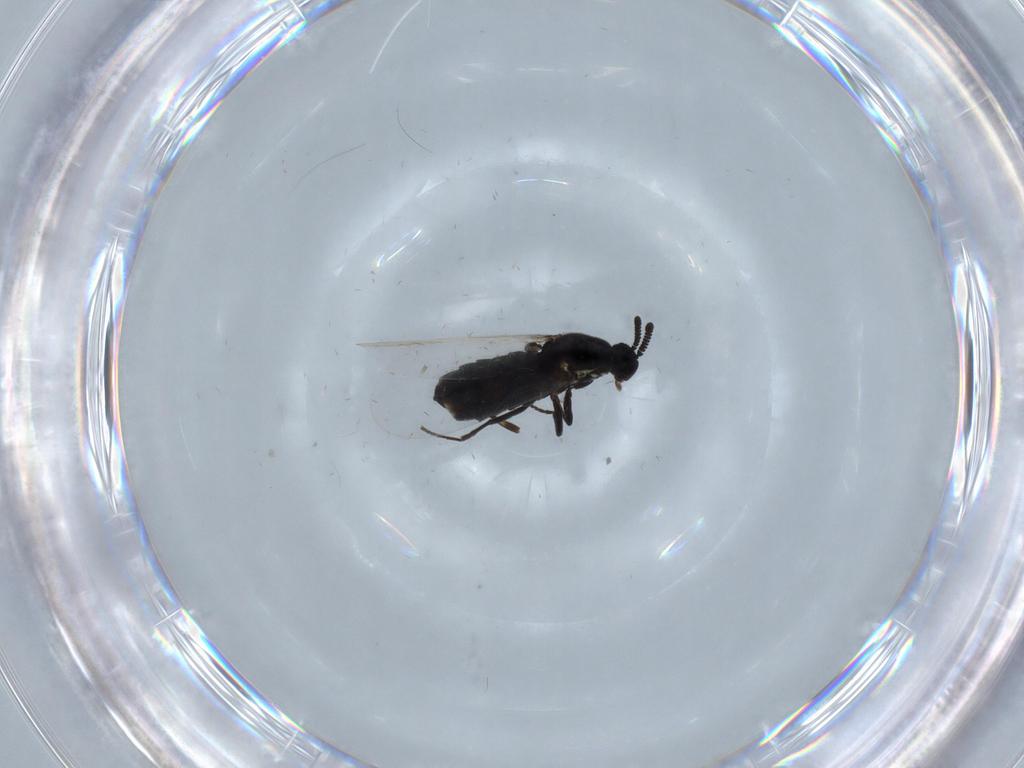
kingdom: Animalia
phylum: Arthropoda
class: Insecta
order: Diptera
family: Scatopsidae
